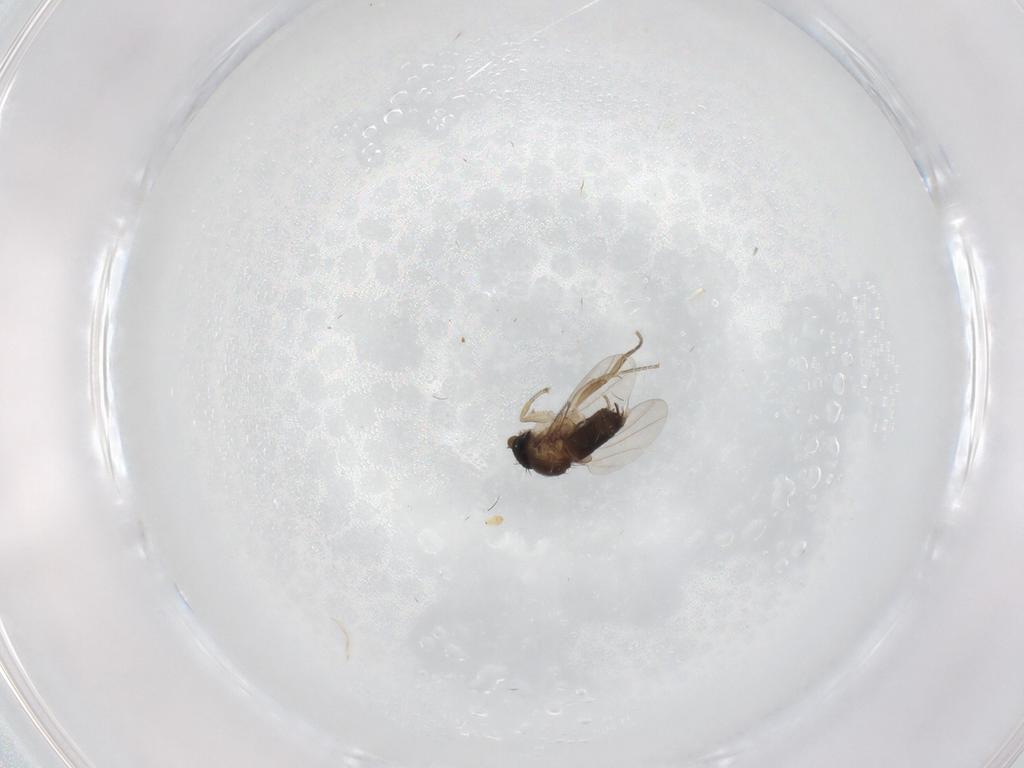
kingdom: Animalia
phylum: Arthropoda
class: Insecta
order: Diptera
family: Phoridae
